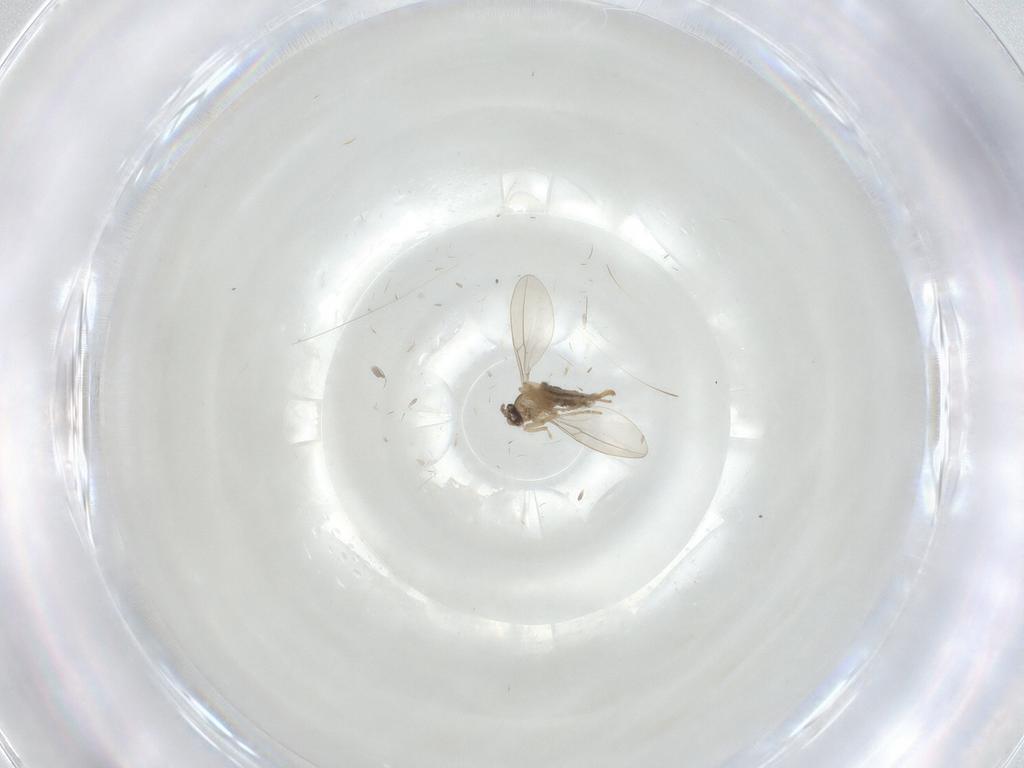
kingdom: Animalia
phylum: Arthropoda
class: Insecta
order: Diptera
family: Cecidomyiidae
